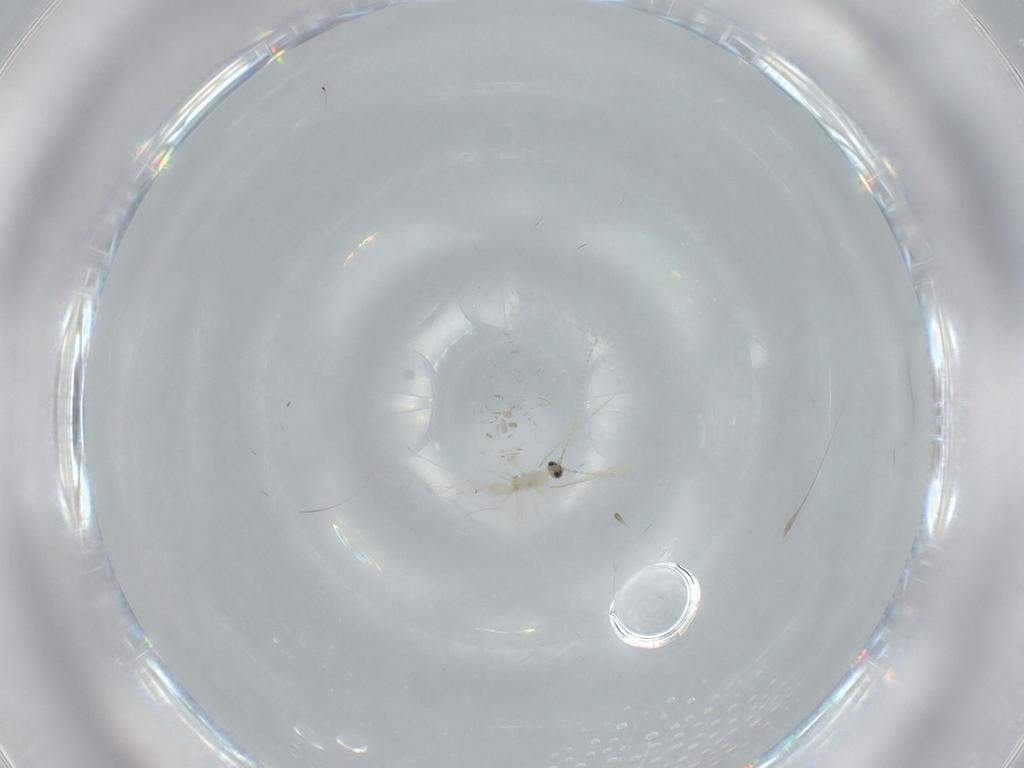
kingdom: Animalia
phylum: Arthropoda
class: Insecta
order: Diptera
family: Cecidomyiidae
